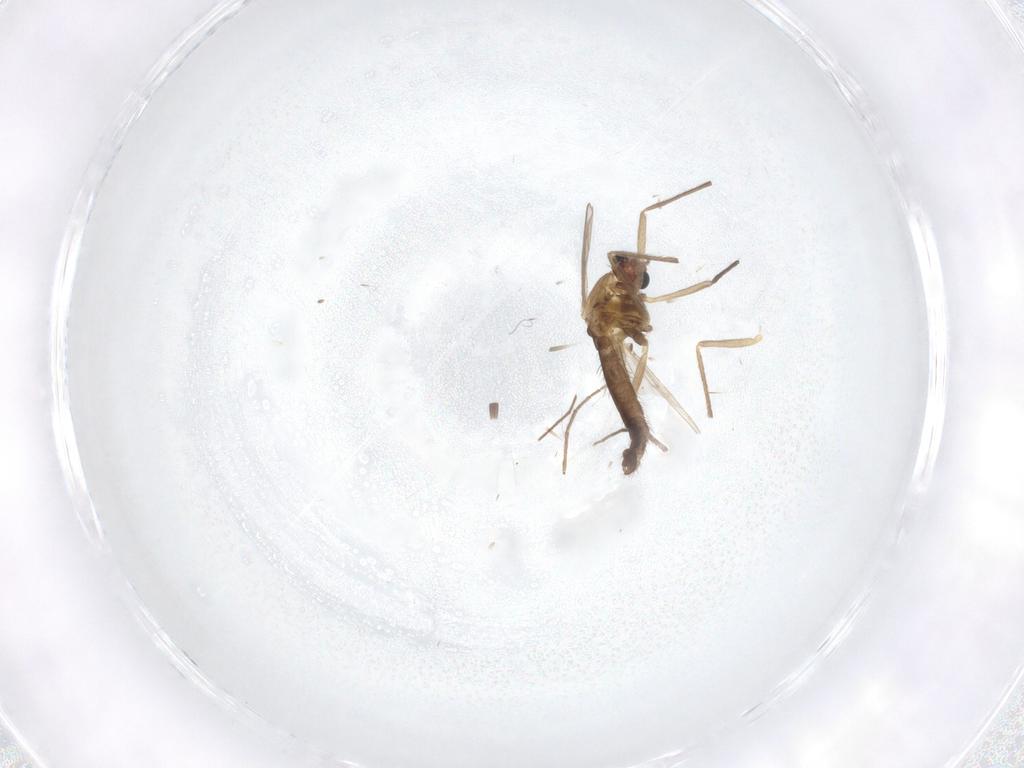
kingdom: Animalia
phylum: Arthropoda
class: Insecta
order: Diptera
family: Chironomidae
